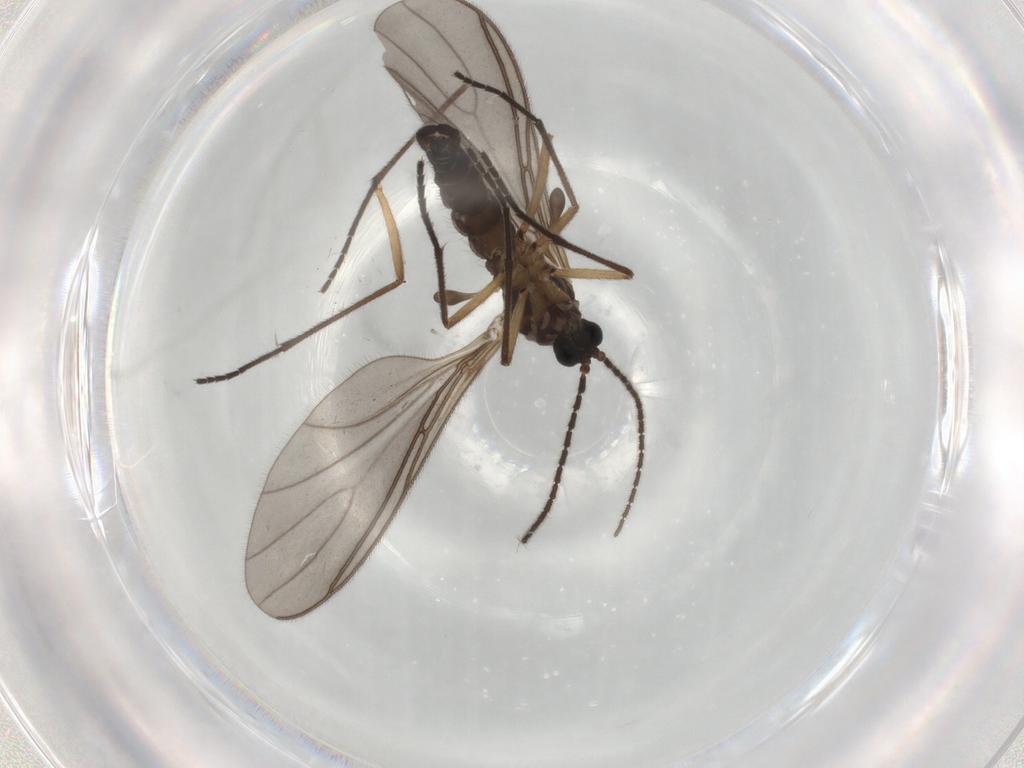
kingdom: Animalia
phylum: Arthropoda
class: Insecta
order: Diptera
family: Sciaridae
